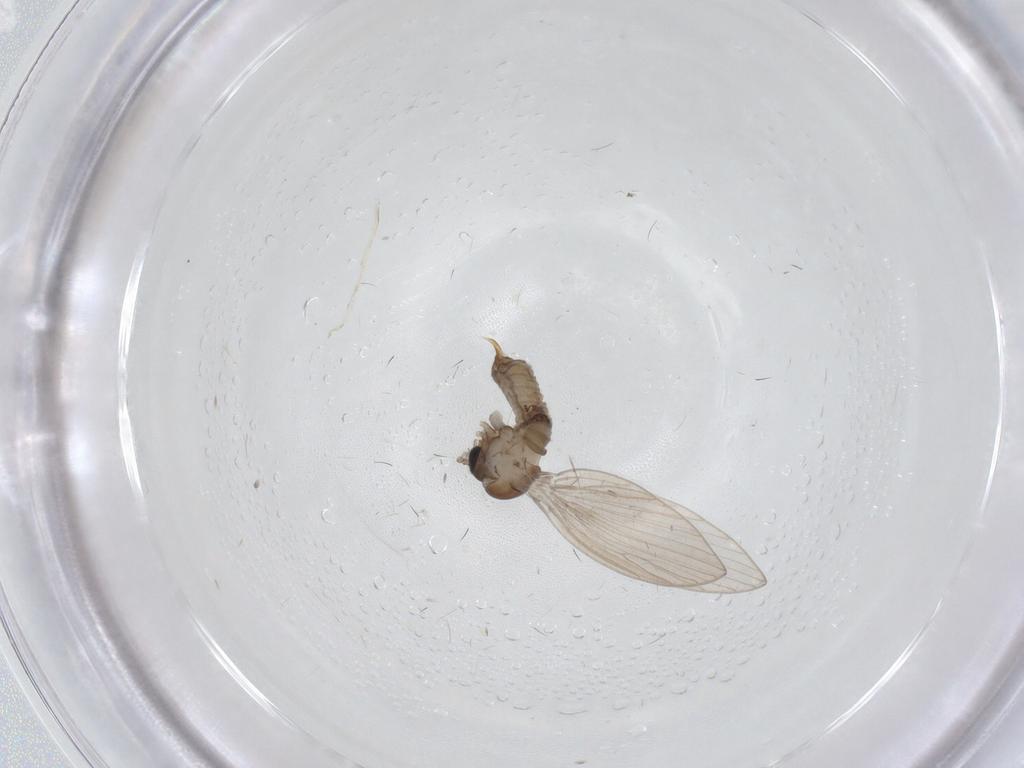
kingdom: Animalia
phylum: Arthropoda
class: Insecta
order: Diptera
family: Psychodidae
